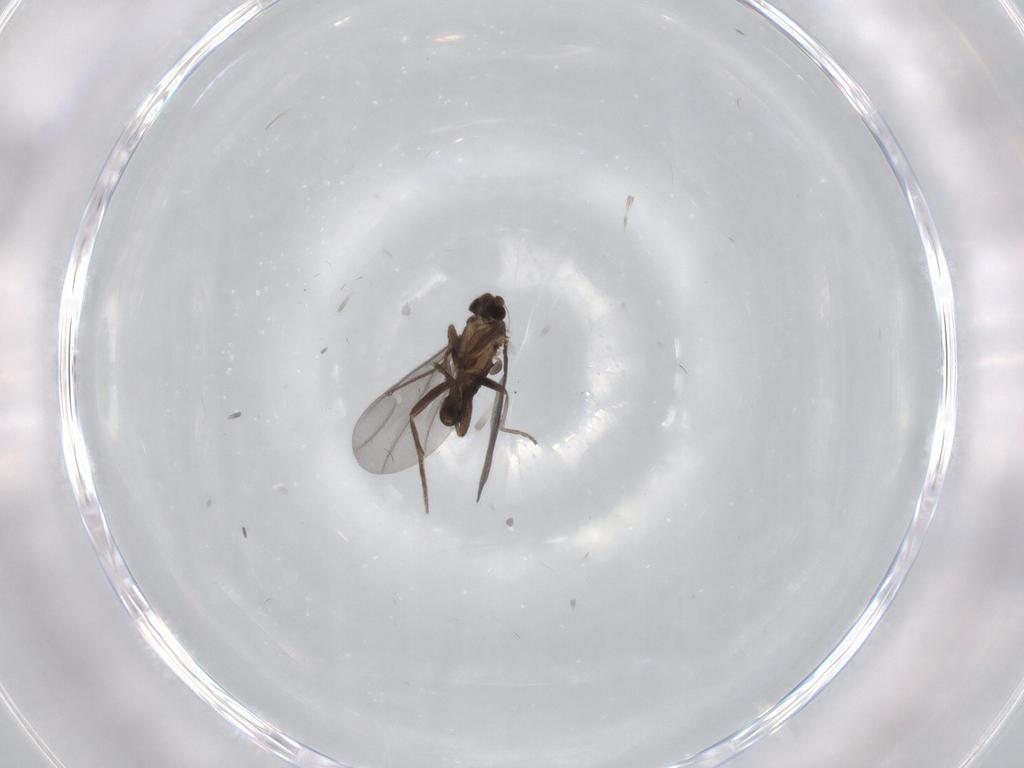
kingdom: Animalia
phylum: Arthropoda
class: Insecta
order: Diptera
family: Phoridae
